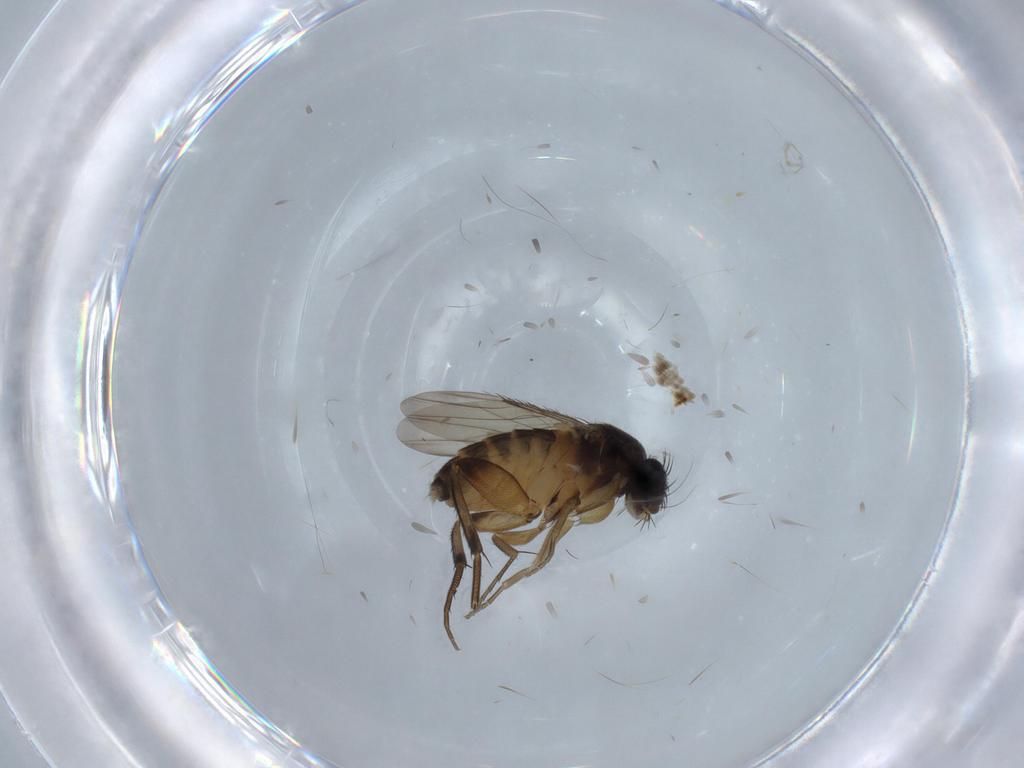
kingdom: Animalia
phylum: Arthropoda
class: Insecta
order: Diptera
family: Phoridae
